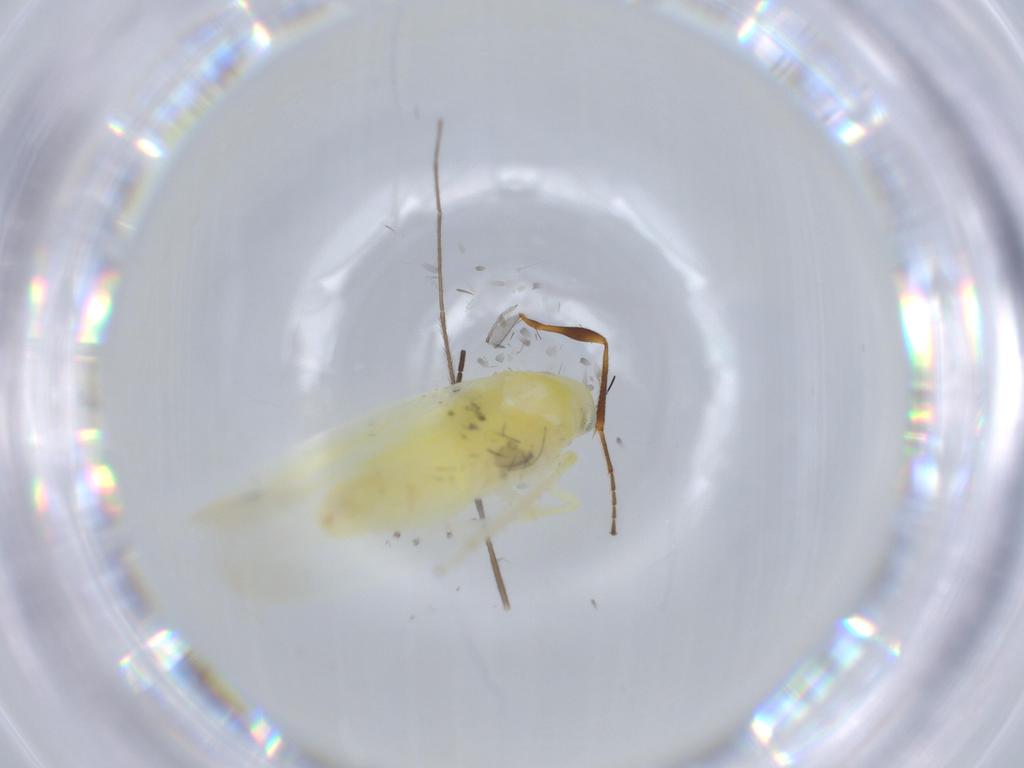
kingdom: Animalia
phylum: Arthropoda
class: Insecta
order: Hemiptera
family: Cicadellidae
